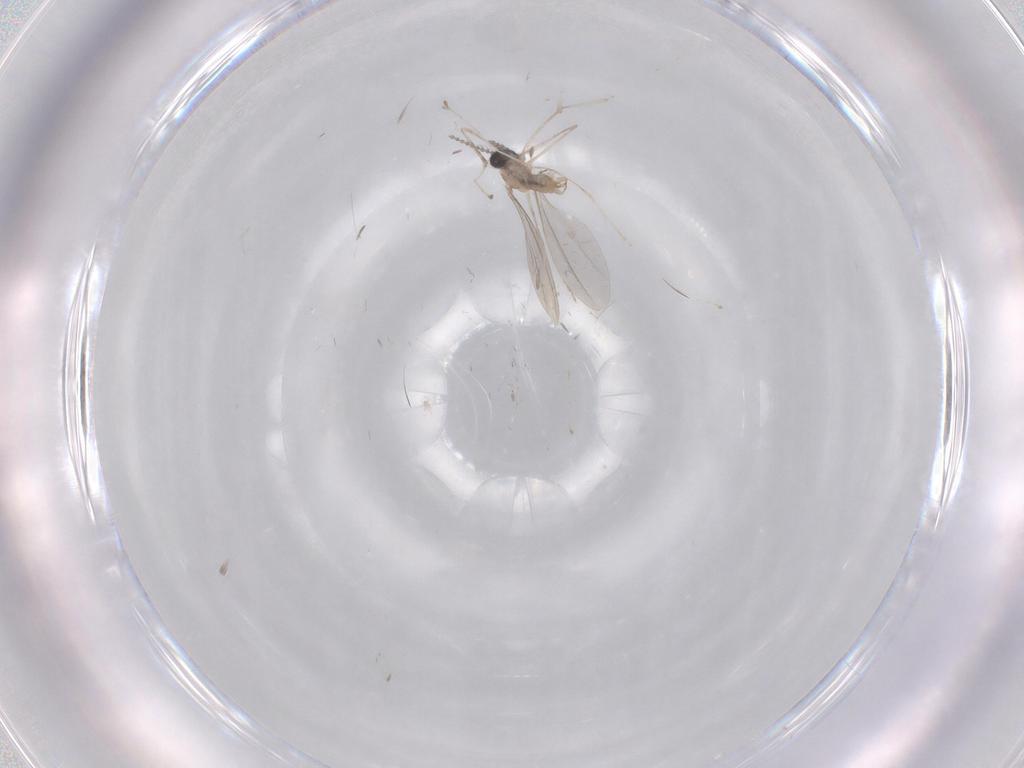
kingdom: Animalia
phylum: Arthropoda
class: Insecta
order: Diptera
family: Cecidomyiidae
